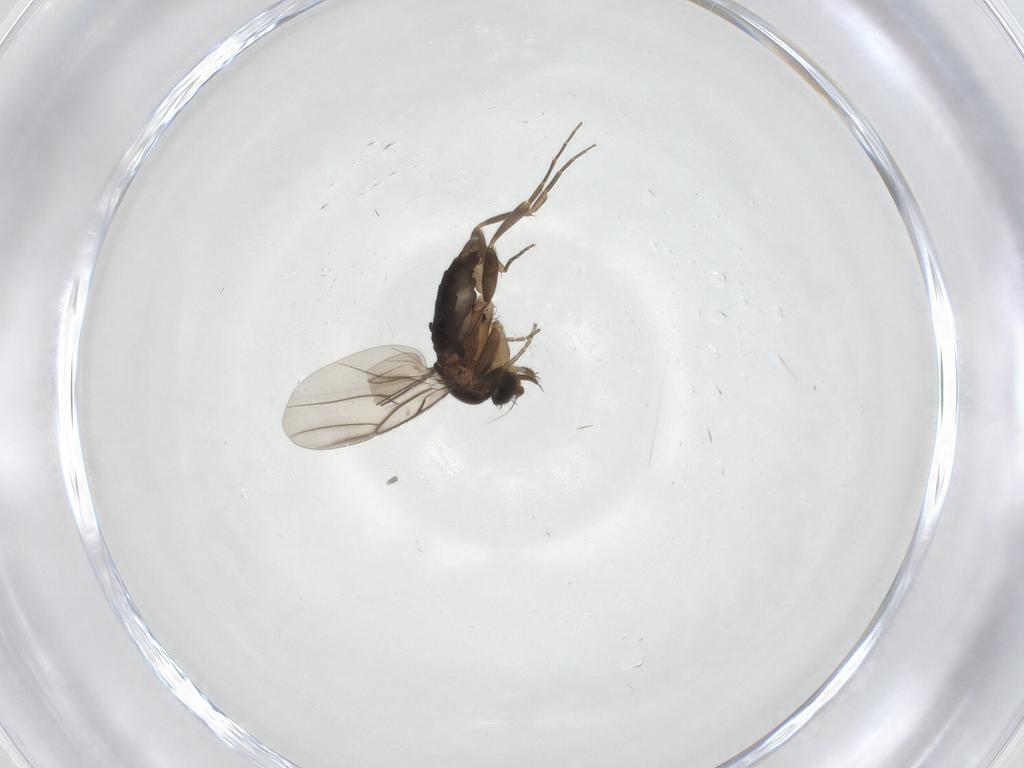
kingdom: Animalia
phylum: Arthropoda
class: Insecta
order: Diptera
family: Phoridae
